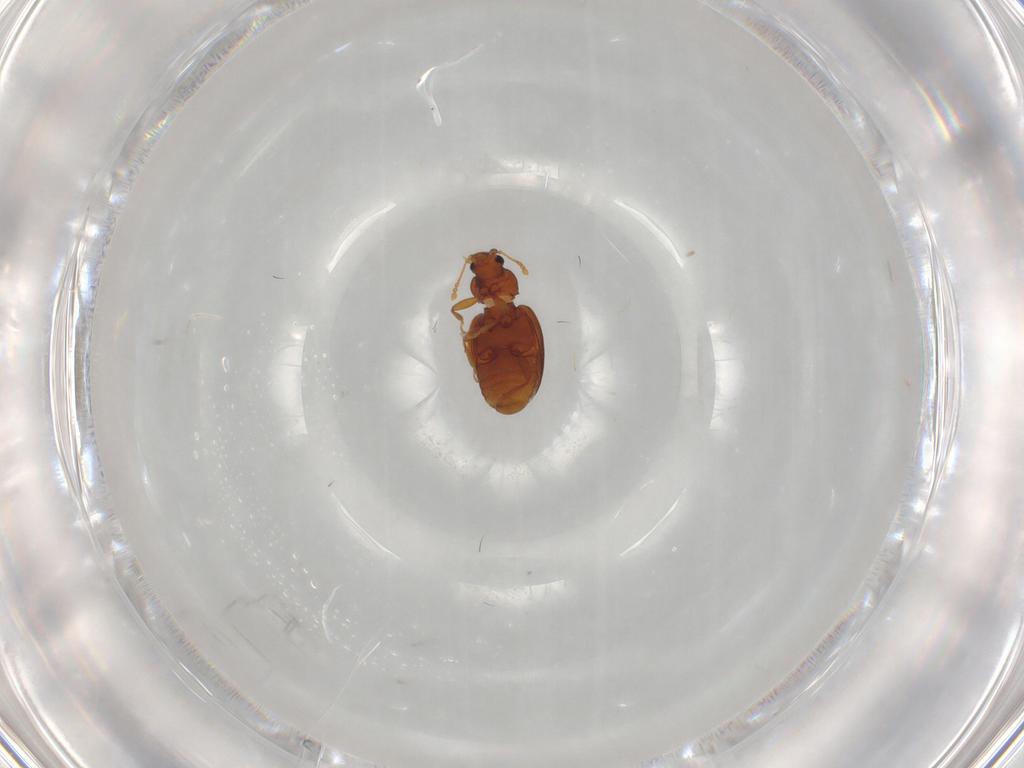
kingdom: Animalia
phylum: Arthropoda
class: Insecta
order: Coleoptera
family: Latridiidae
